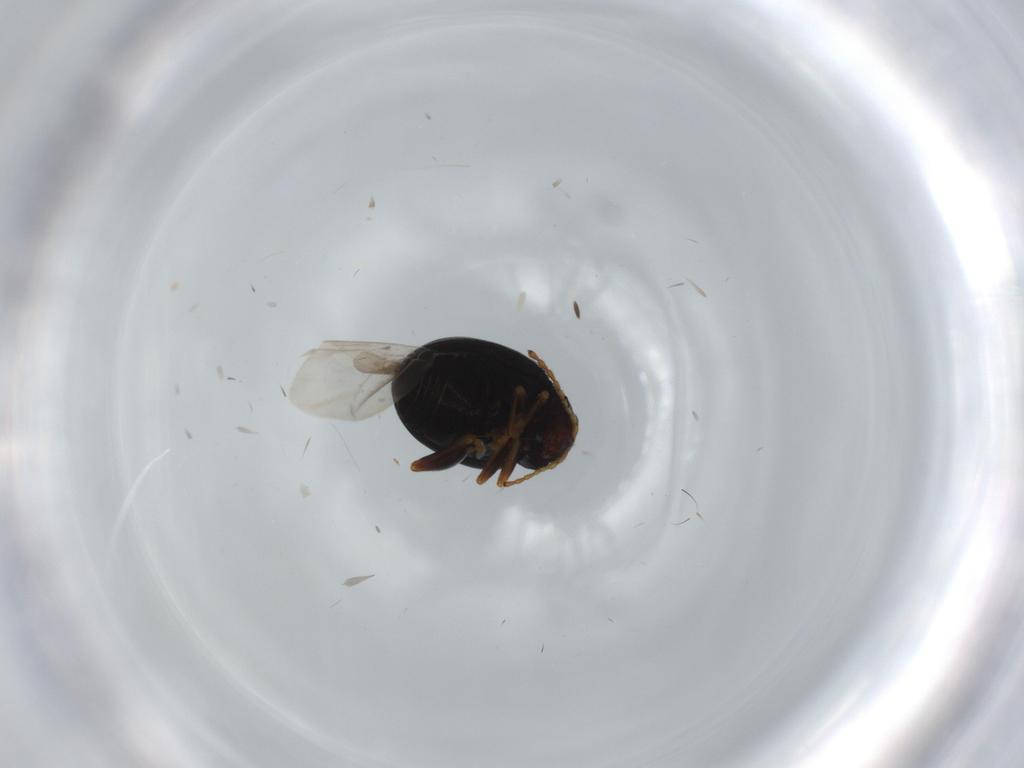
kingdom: Animalia
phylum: Arthropoda
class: Insecta
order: Coleoptera
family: Chrysomelidae
